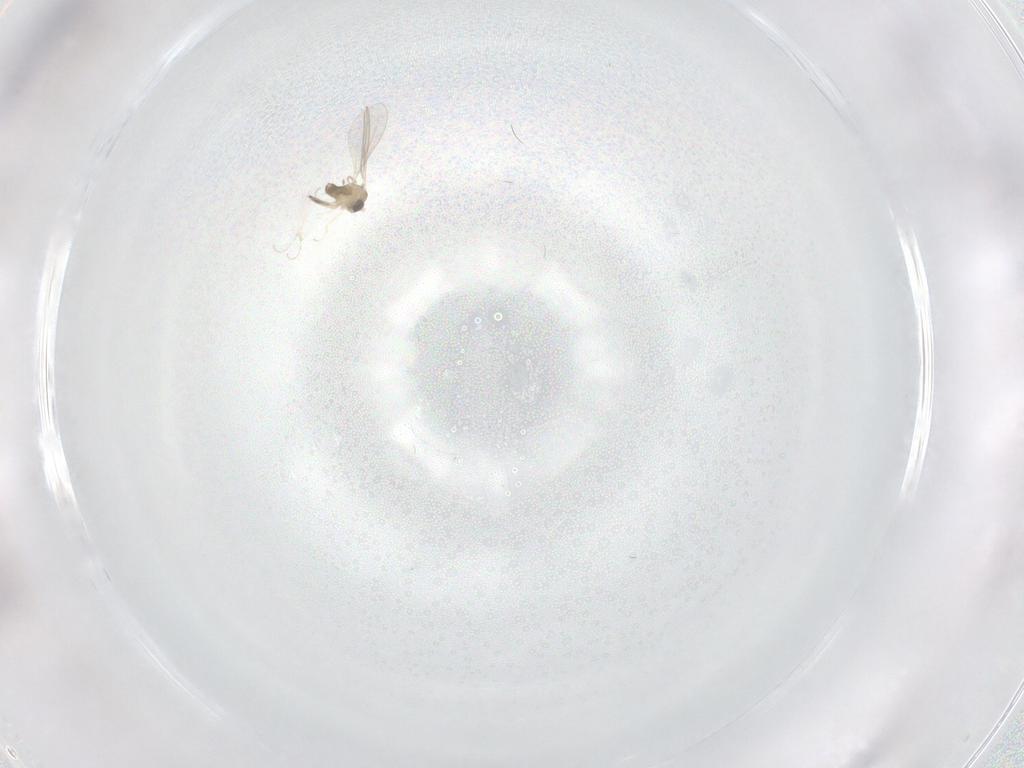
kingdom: Animalia
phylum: Arthropoda
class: Insecta
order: Diptera
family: Cecidomyiidae
